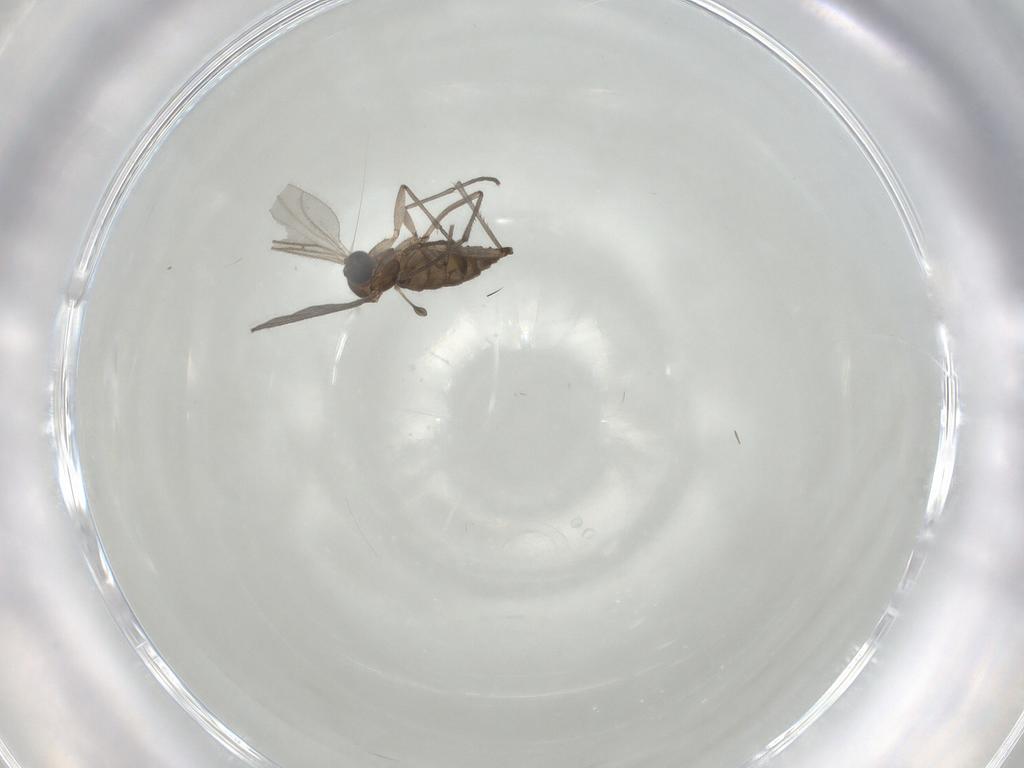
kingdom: Animalia
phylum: Arthropoda
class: Insecta
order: Diptera
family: Sciaridae
